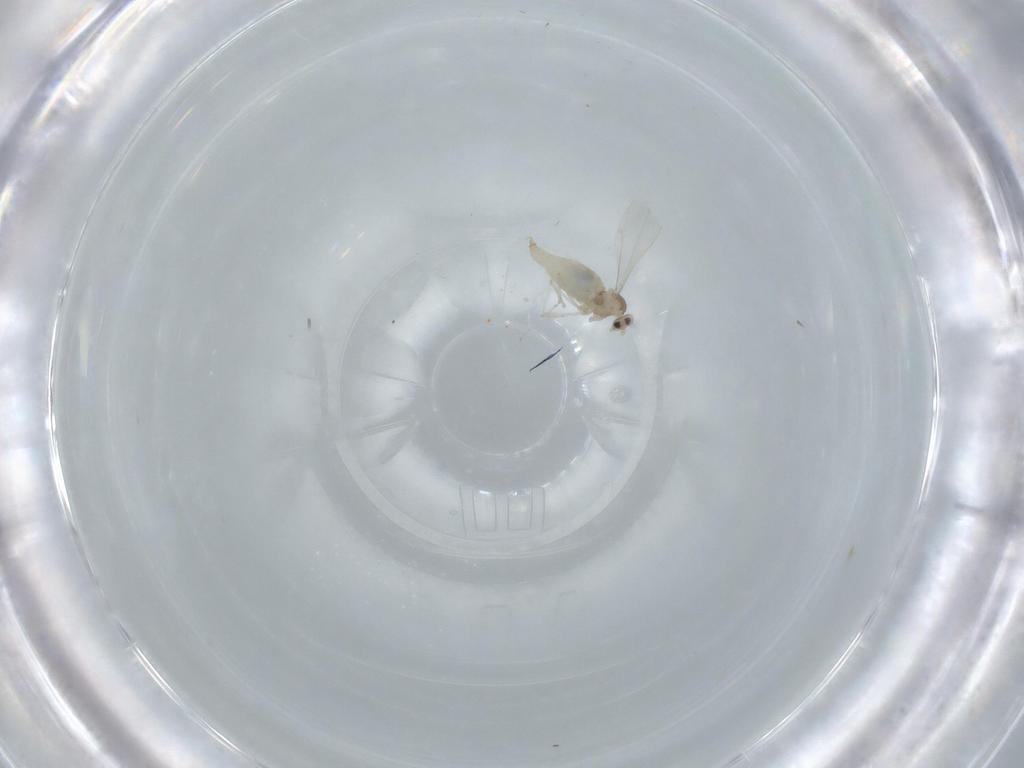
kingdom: Animalia
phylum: Arthropoda
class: Insecta
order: Diptera
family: Cecidomyiidae
